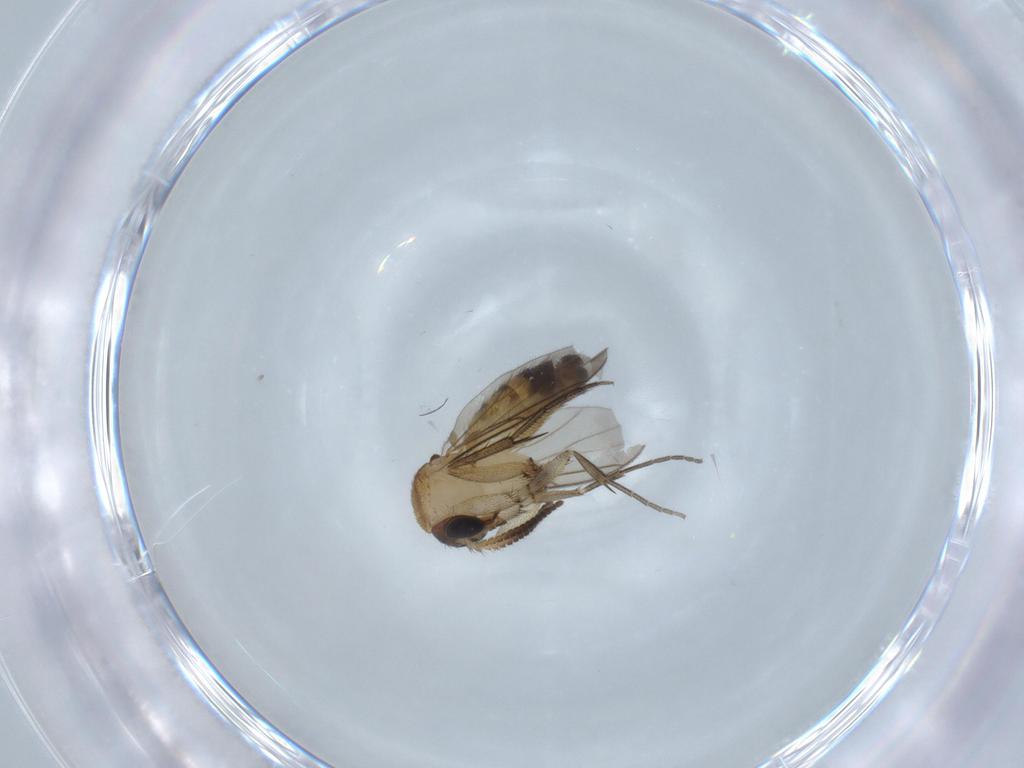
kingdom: Animalia
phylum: Arthropoda
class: Insecta
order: Diptera
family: Mycetophilidae
